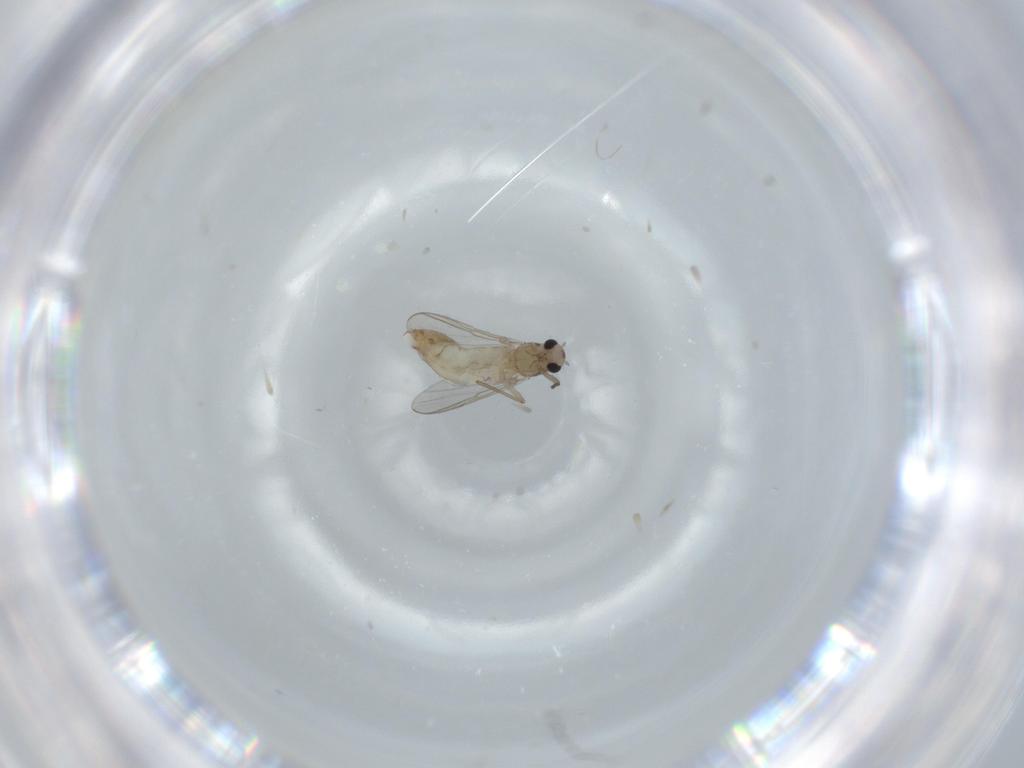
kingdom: Animalia
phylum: Arthropoda
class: Insecta
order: Diptera
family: Chironomidae
